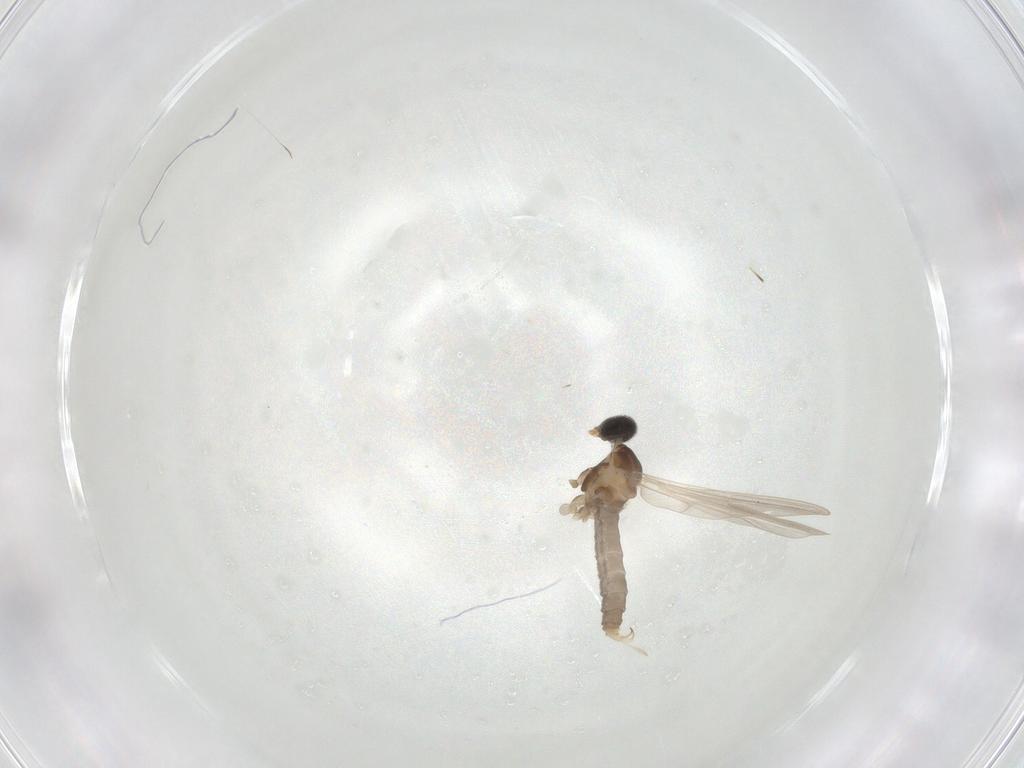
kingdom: Animalia
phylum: Arthropoda
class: Insecta
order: Diptera
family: Cecidomyiidae
